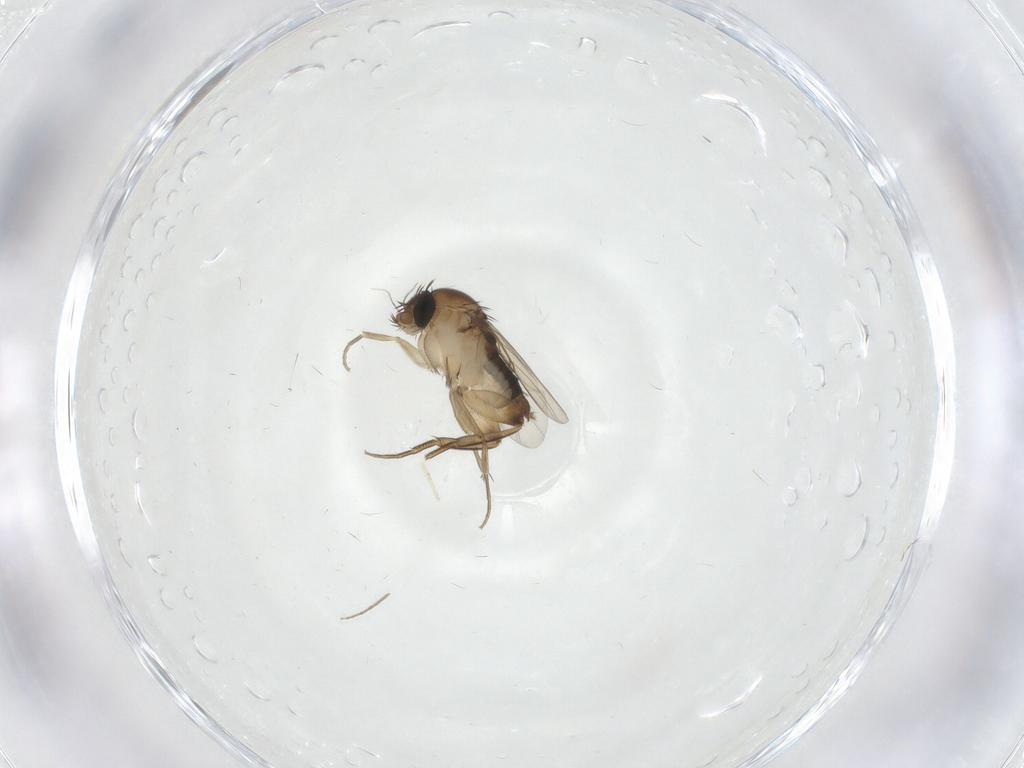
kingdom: Animalia
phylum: Arthropoda
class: Insecta
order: Diptera
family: Phoridae
